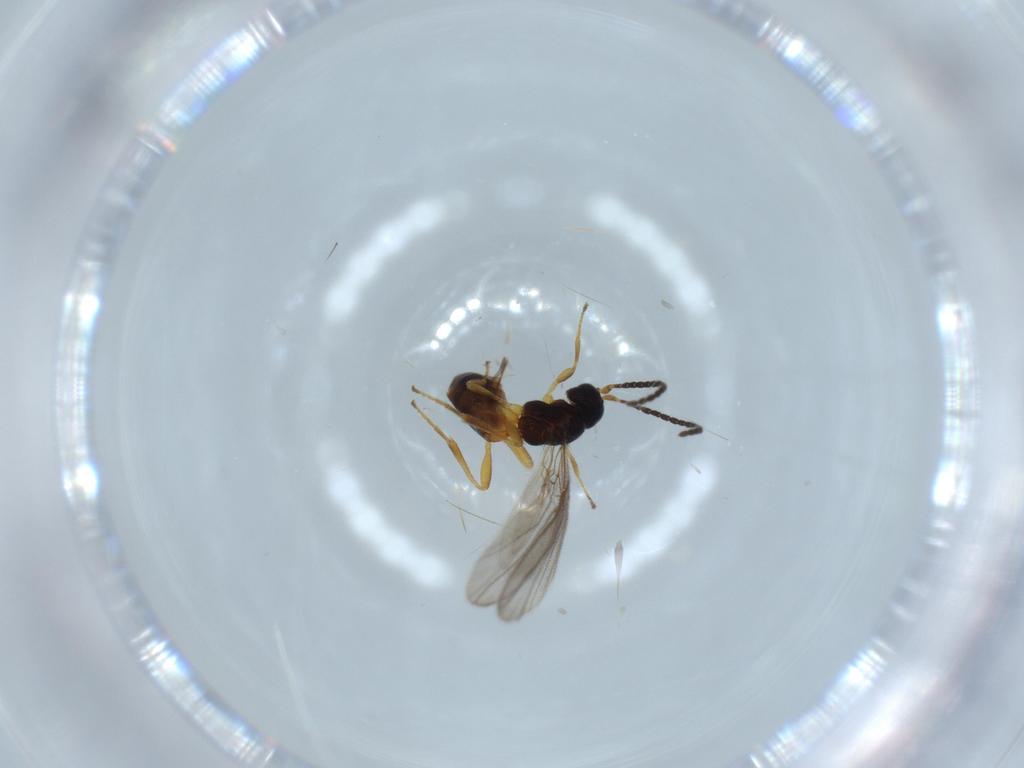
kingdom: Animalia
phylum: Arthropoda
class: Insecta
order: Hymenoptera
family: Braconidae
